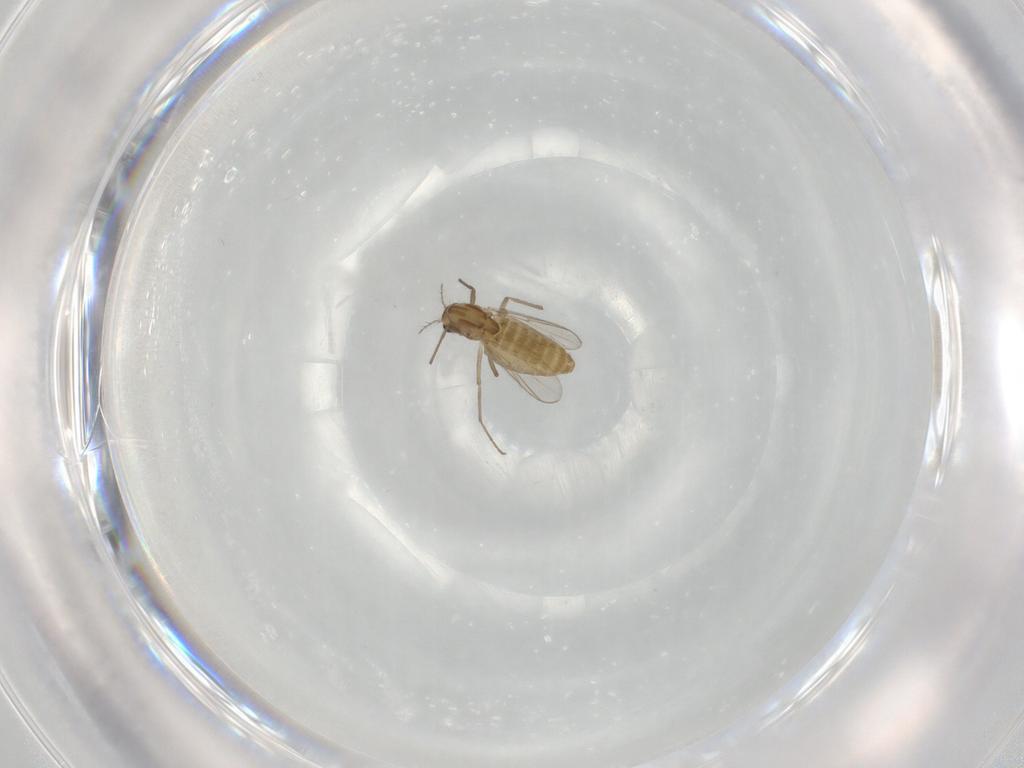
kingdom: Animalia
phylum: Arthropoda
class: Insecta
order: Diptera
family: Chironomidae
